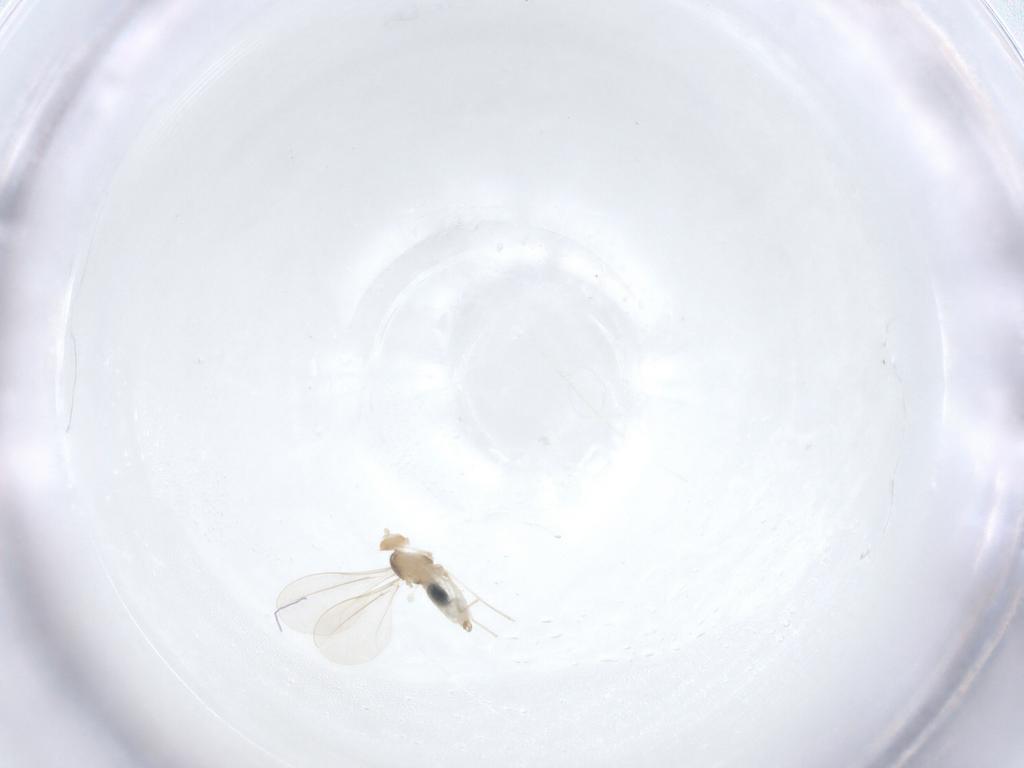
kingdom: Animalia
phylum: Arthropoda
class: Insecta
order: Diptera
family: Cecidomyiidae
